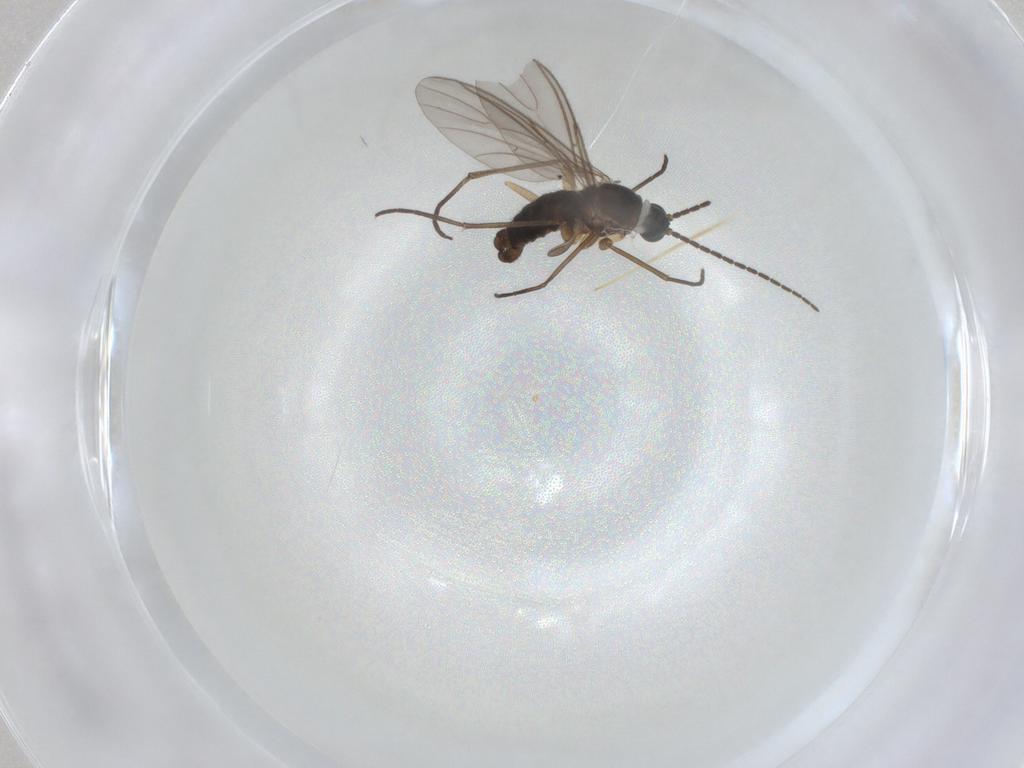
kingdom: Animalia
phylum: Arthropoda
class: Insecta
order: Diptera
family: Sciaridae
